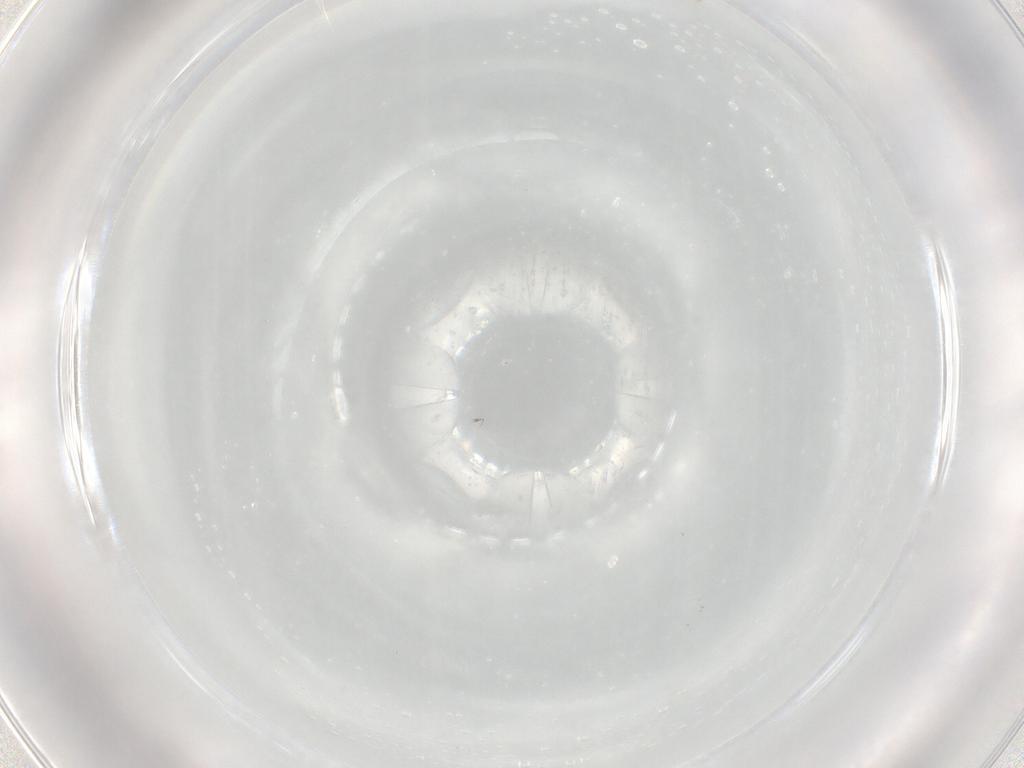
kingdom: Animalia
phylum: Arthropoda
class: Insecta
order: Diptera
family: Cecidomyiidae
